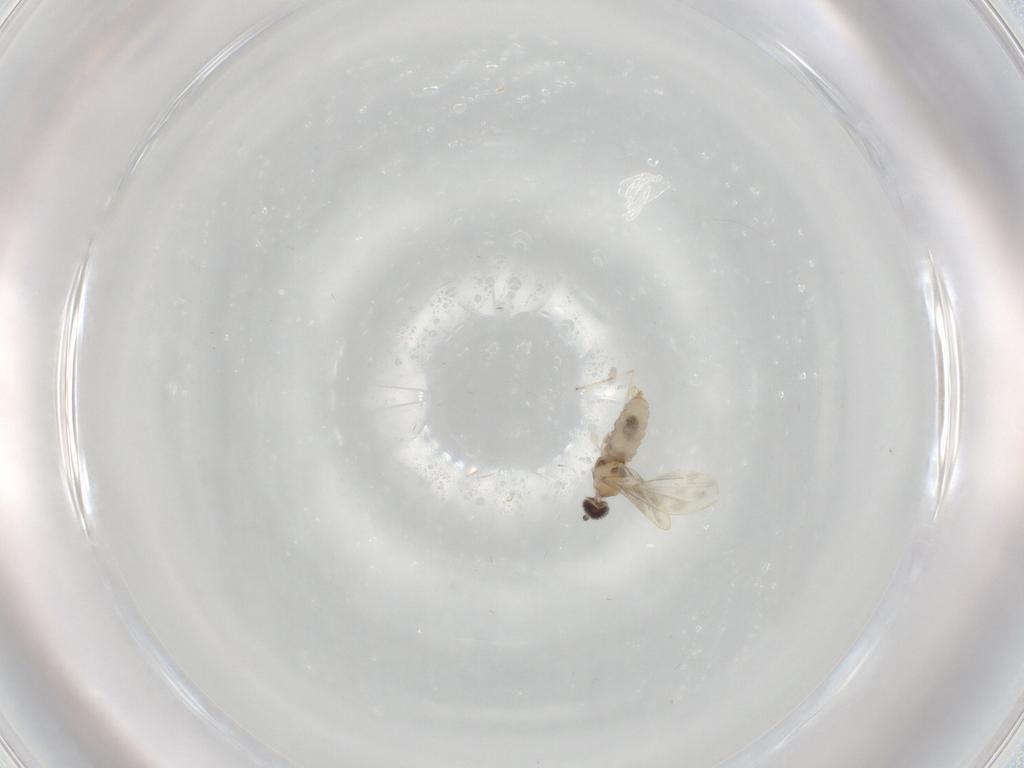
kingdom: Animalia
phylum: Arthropoda
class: Insecta
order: Diptera
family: Cecidomyiidae
